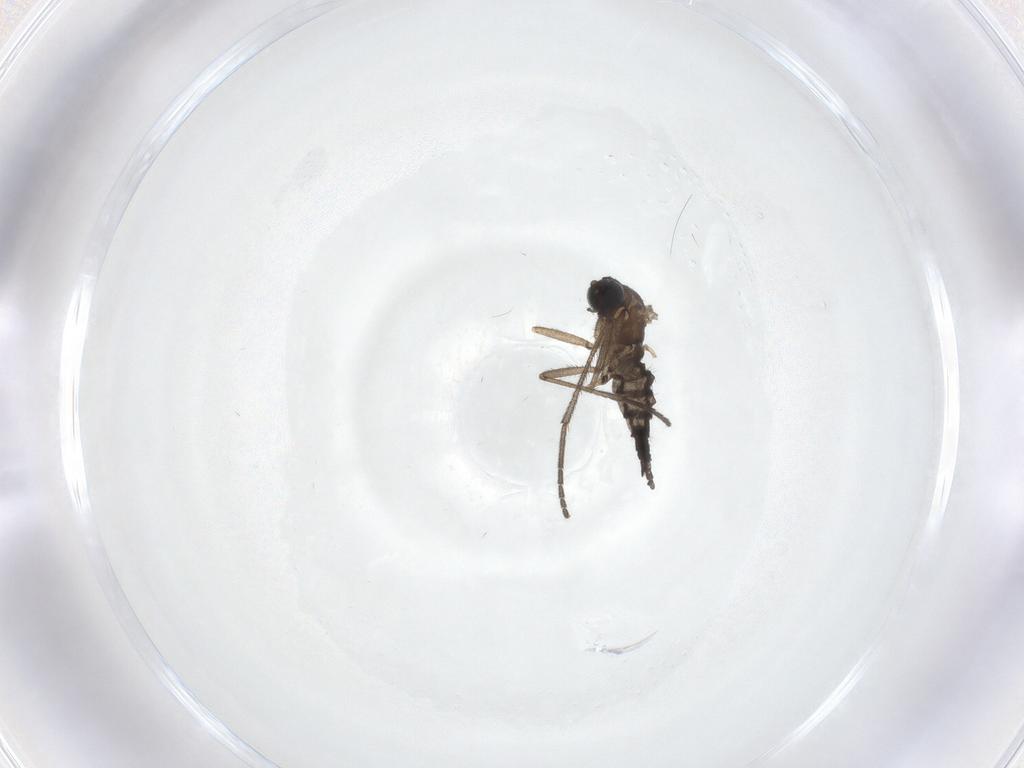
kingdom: Animalia
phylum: Arthropoda
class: Insecta
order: Diptera
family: Sciaridae
